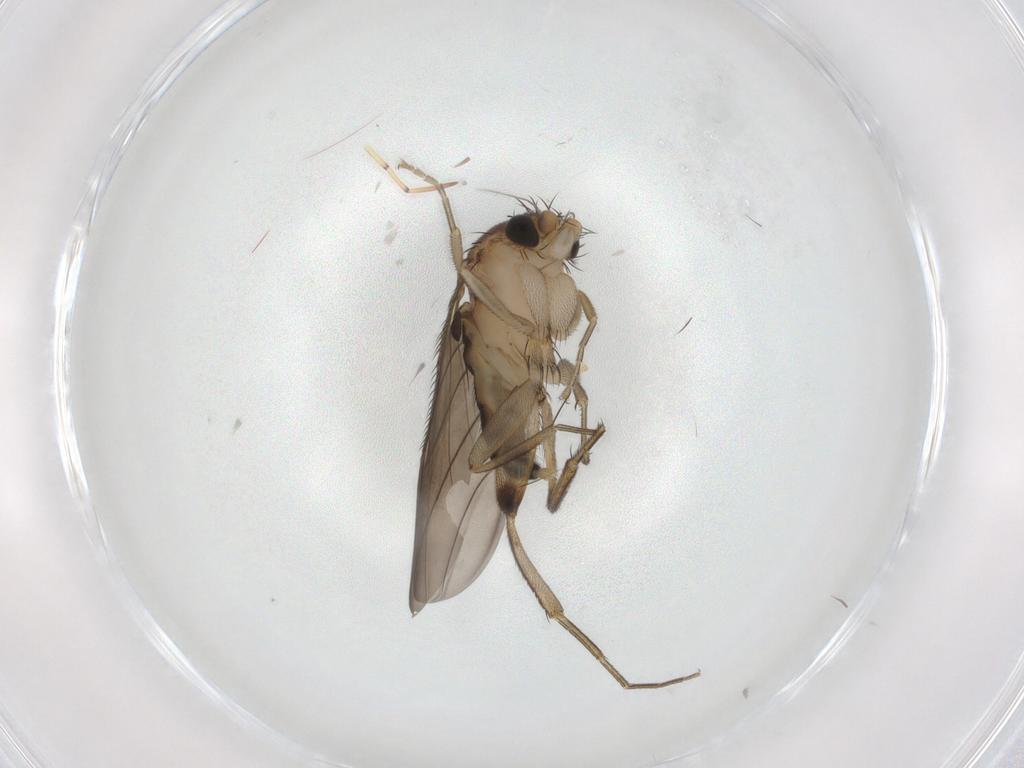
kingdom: Animalia
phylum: Arthropoda
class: Insecta
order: Diptera
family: Phoridae
